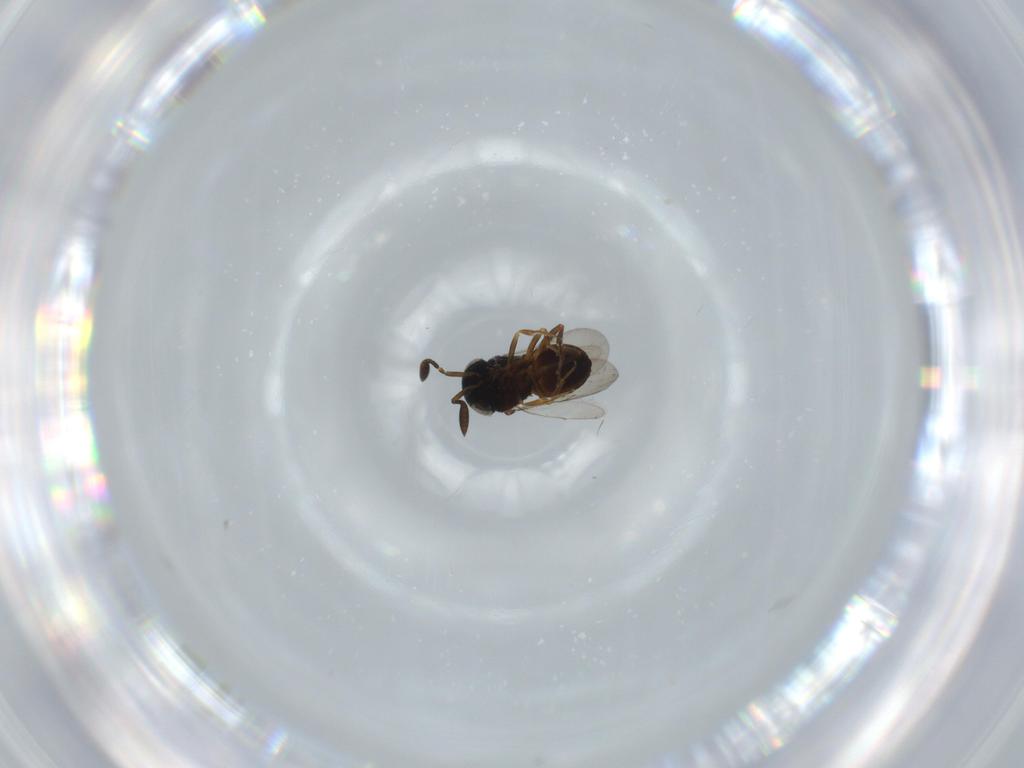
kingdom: Animalia
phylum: Arthropoda
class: Insecta
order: Coleoptera
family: Curculionidae
